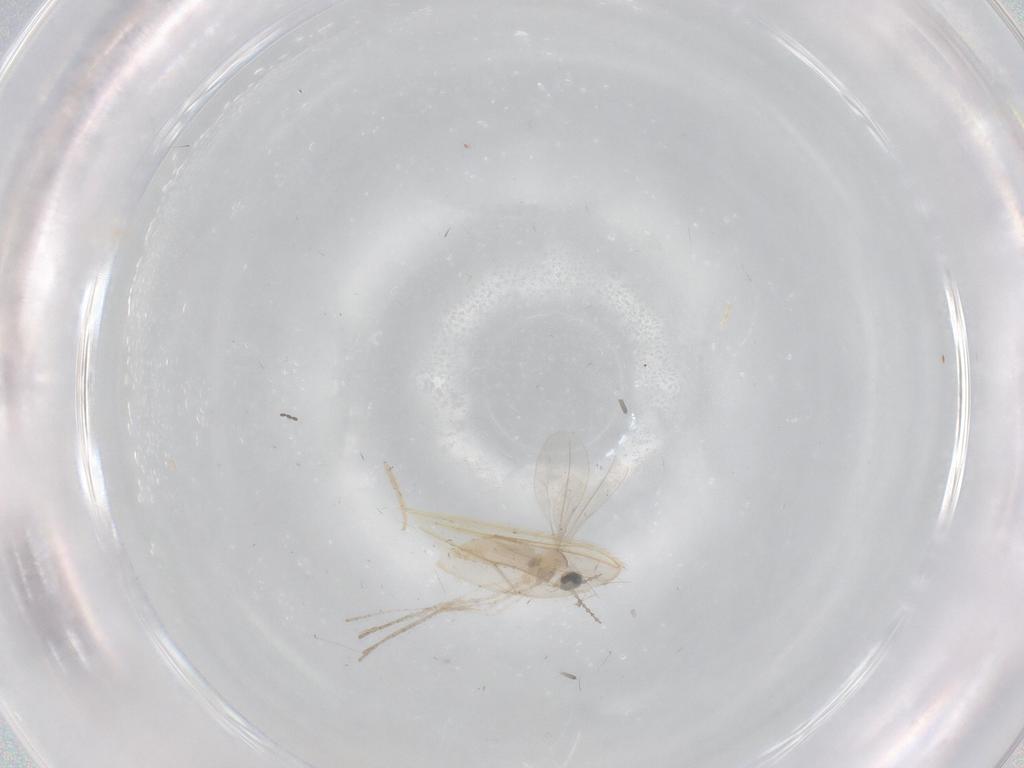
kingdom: Animalia
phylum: Arthropoda
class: Insecta
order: Diptera
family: Cecidomyiidae
